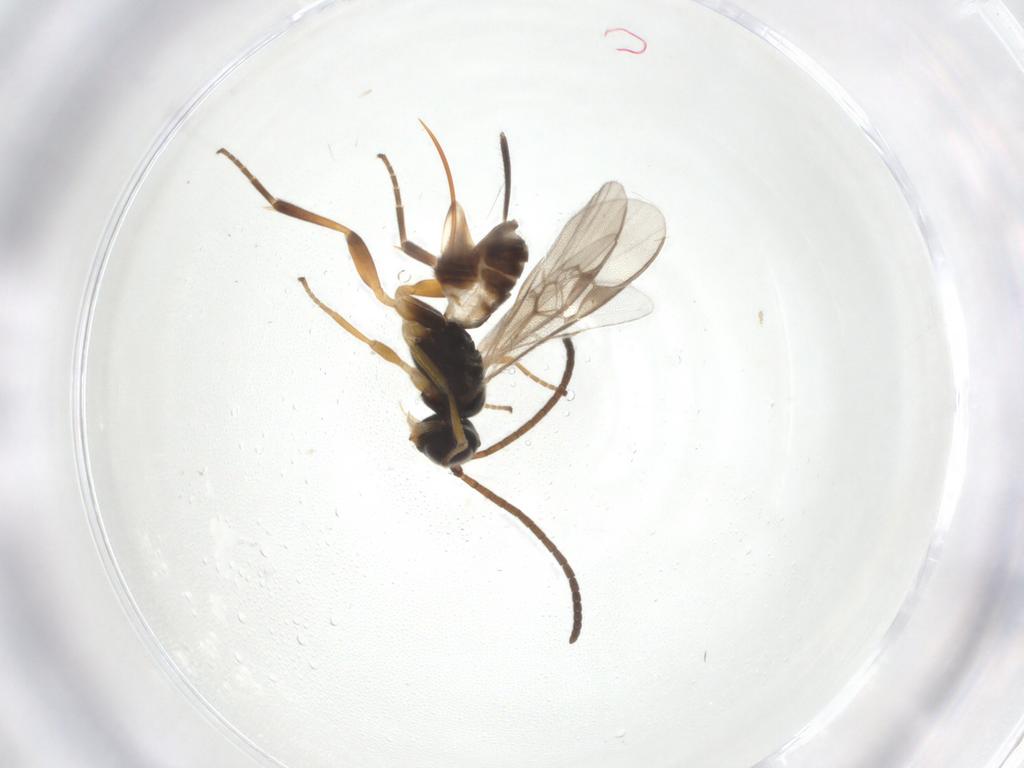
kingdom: Animalia
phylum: Arthropoda
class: Insecta
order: Hymenoptera
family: Braconidae
